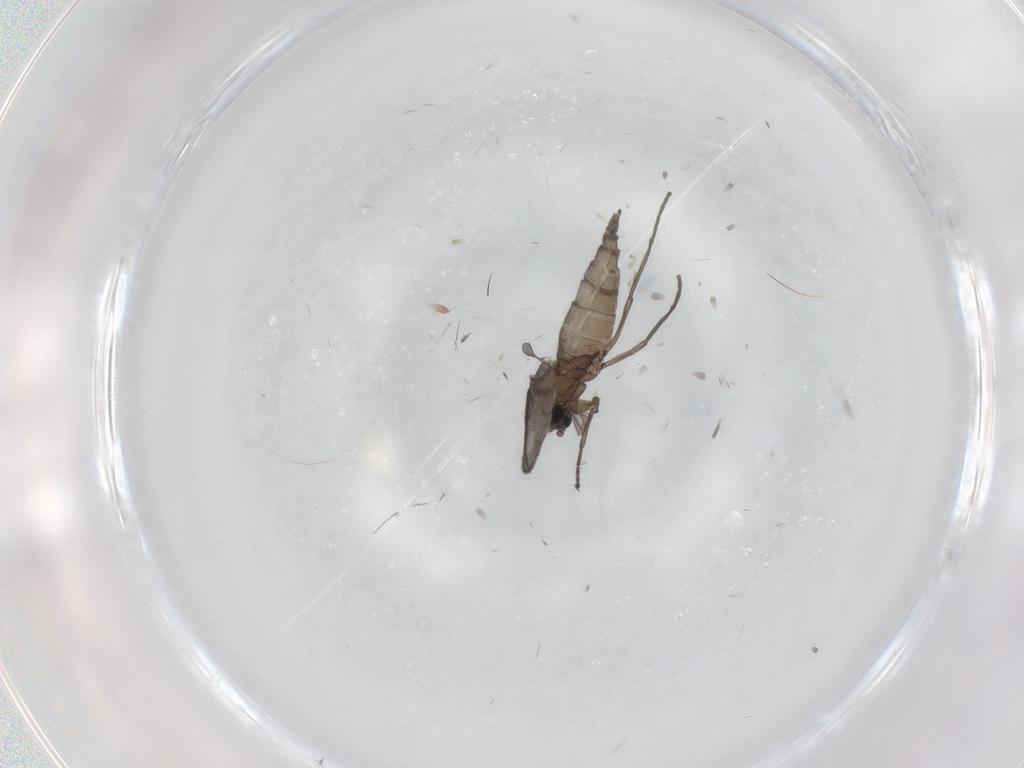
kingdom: Animalia
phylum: Arthropoda
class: Insecta
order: Diptera
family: Sciaridae
